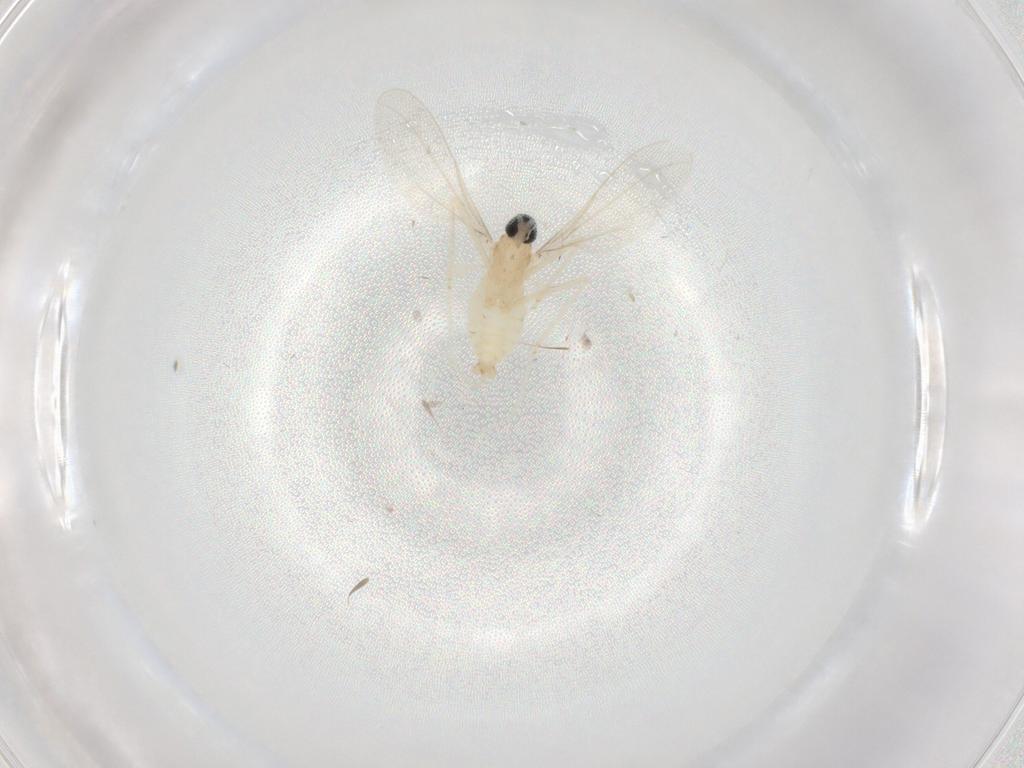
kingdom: Animalia
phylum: Arthropoda
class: Insecta
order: Diptera
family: Cecidomyiidae
